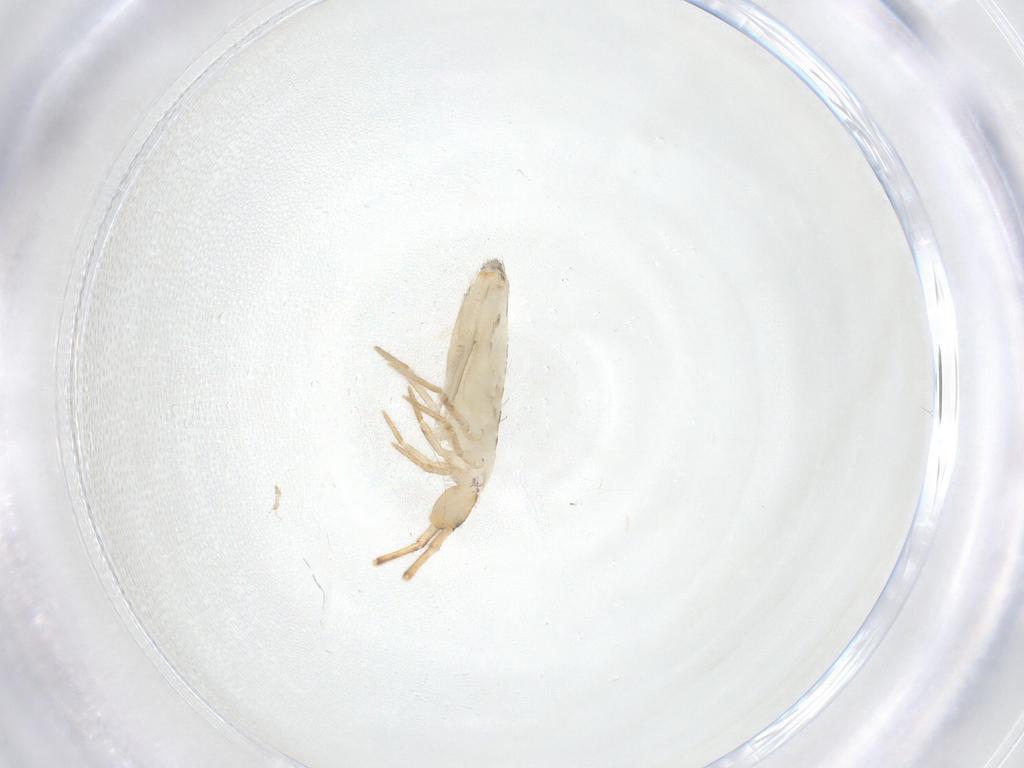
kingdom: Animalia
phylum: Arthropoda
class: Collembola
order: Entomobryomorpha
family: Entomobryidae
